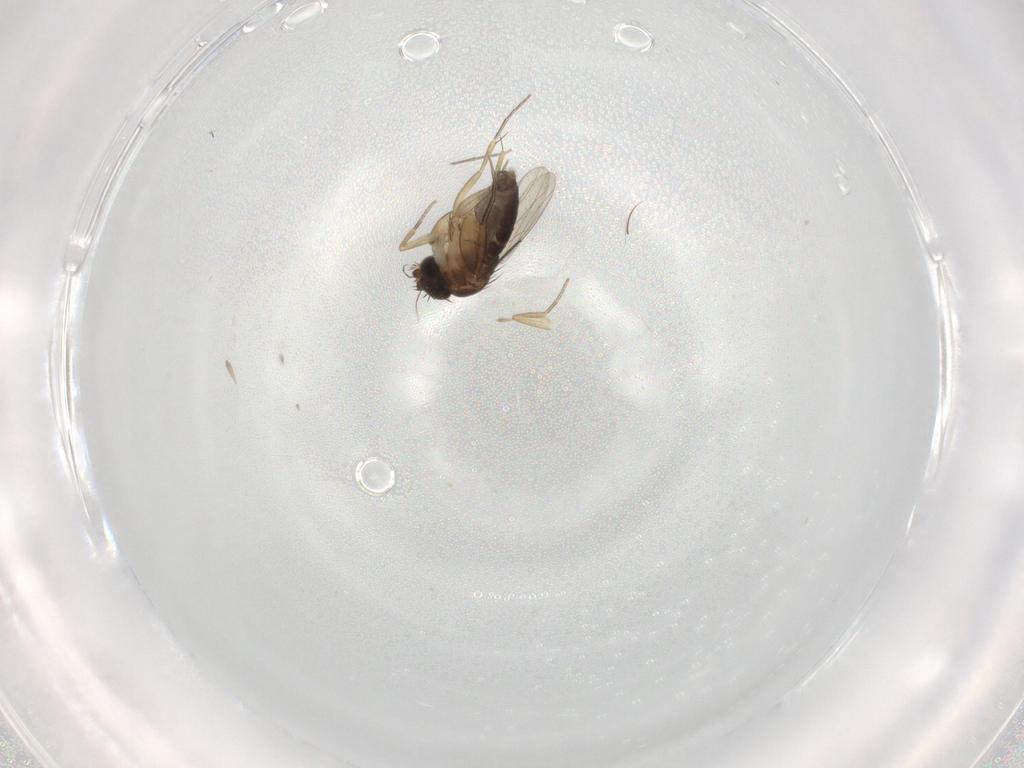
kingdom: Animalia
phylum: Arthropoda
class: Insecta
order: Diptera
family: Phoridae
